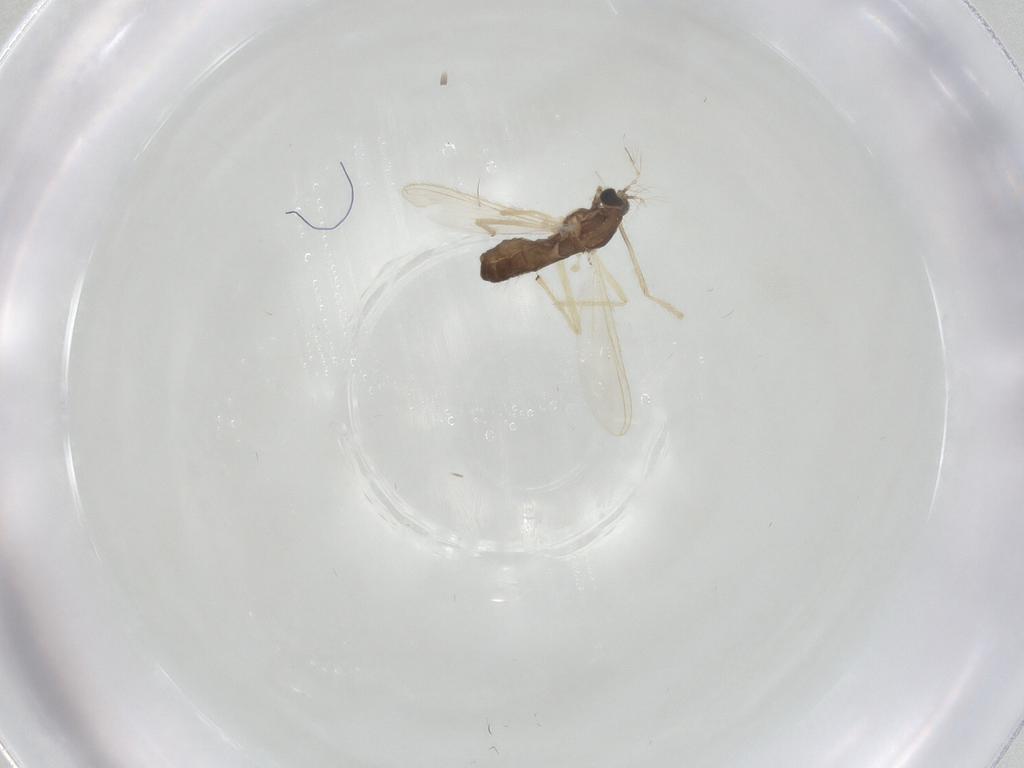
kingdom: Animalia
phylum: Arthropoda
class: Insecta
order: Diptera
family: Chironomidae
